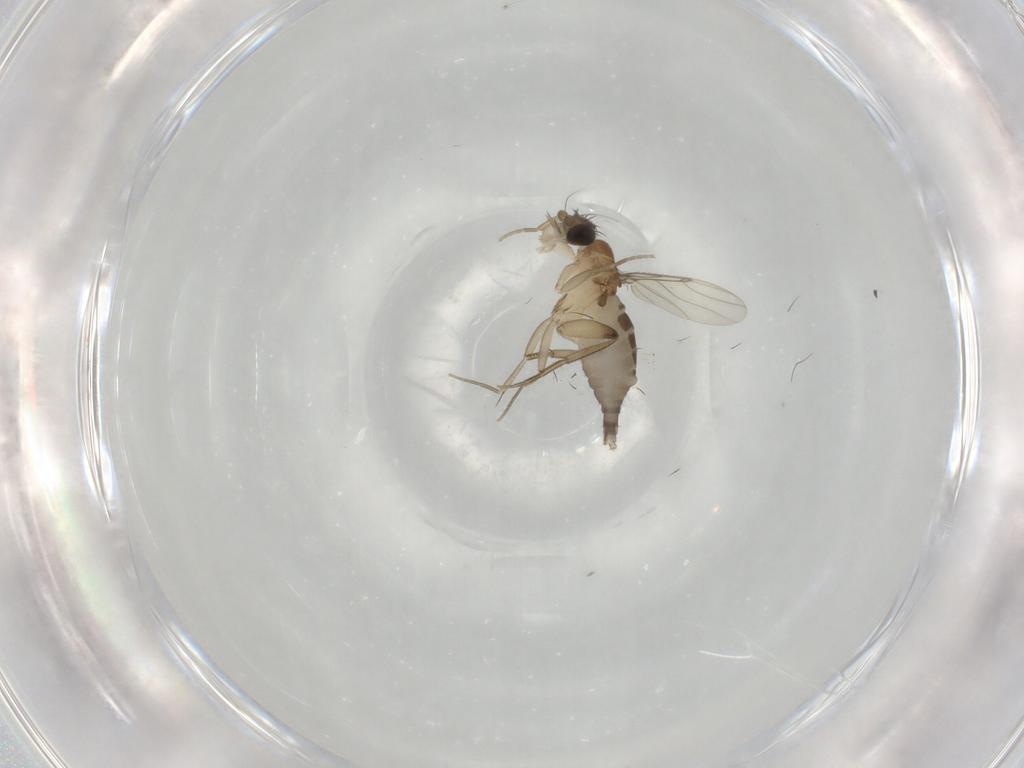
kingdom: Animalia
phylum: Arthropoda
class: Insecta
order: Diptera
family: Phoridae
